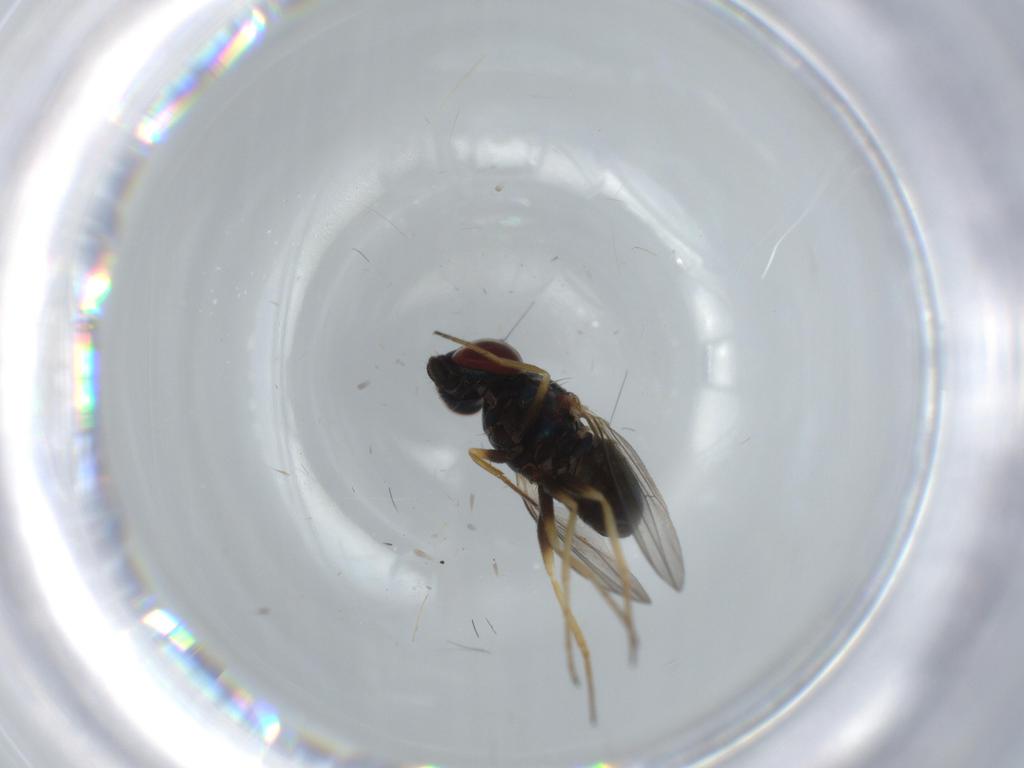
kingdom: Animalia
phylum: Arthropoda
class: Insecta
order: Diptera
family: Dolichopodidae
